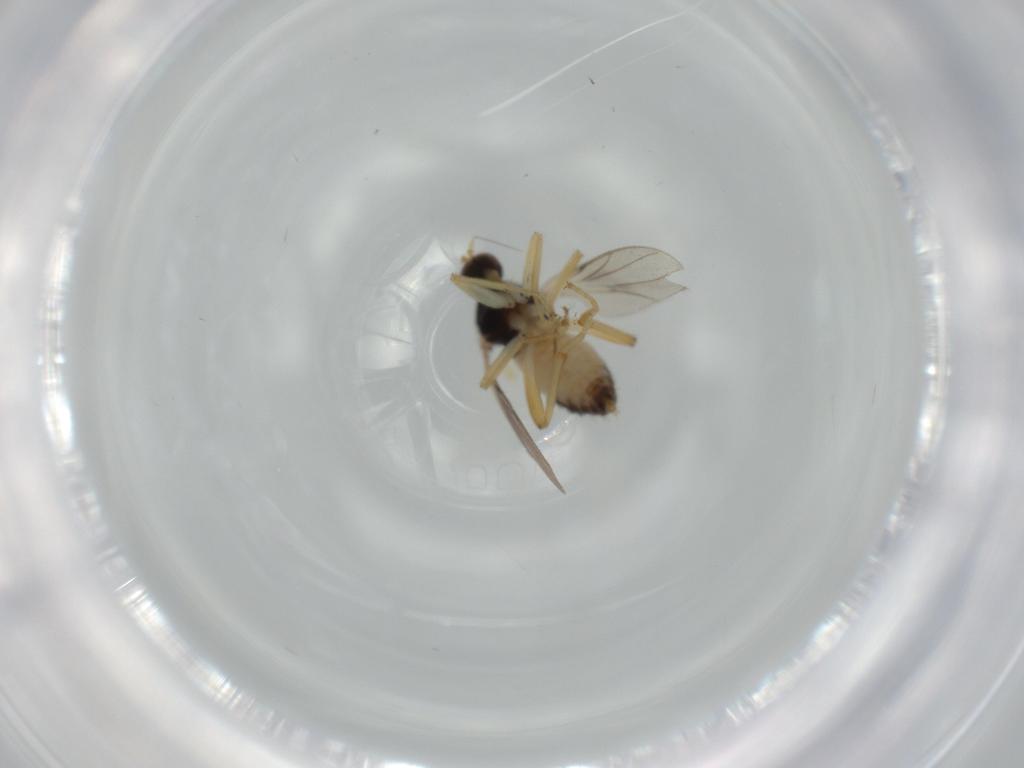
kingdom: Animalia
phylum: Arthropoda
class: Insecta
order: Diptera
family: Hybotidae
